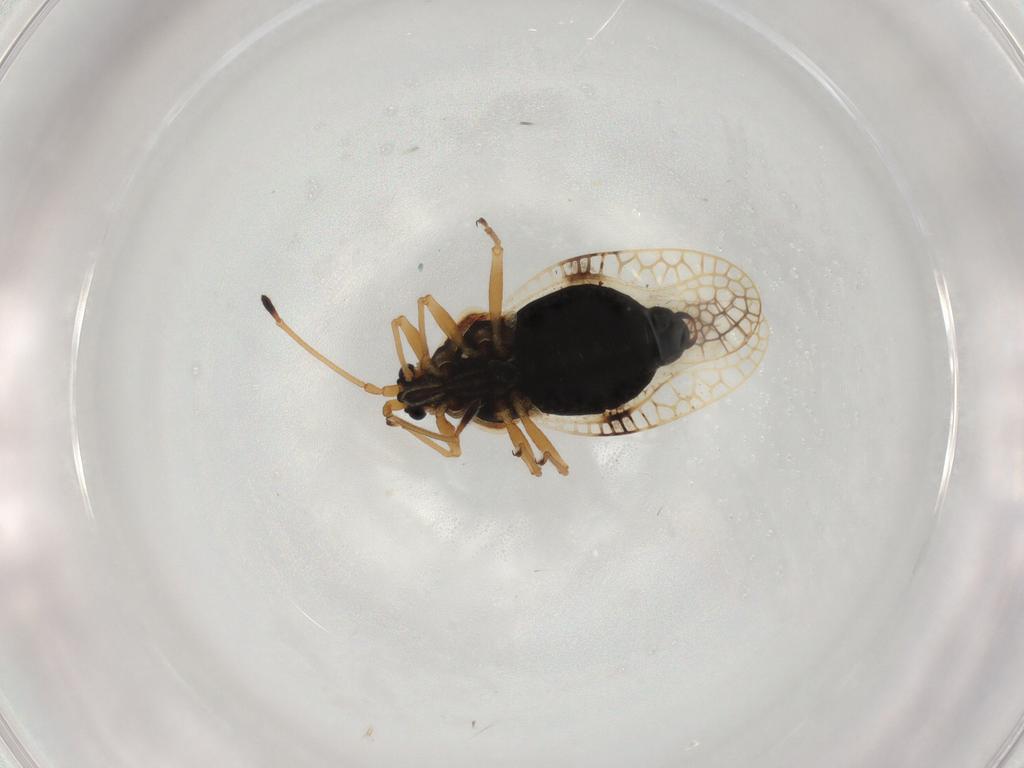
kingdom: Animalia
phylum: Arthropoda
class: Insecta
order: Hemiptera
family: Tingidae
